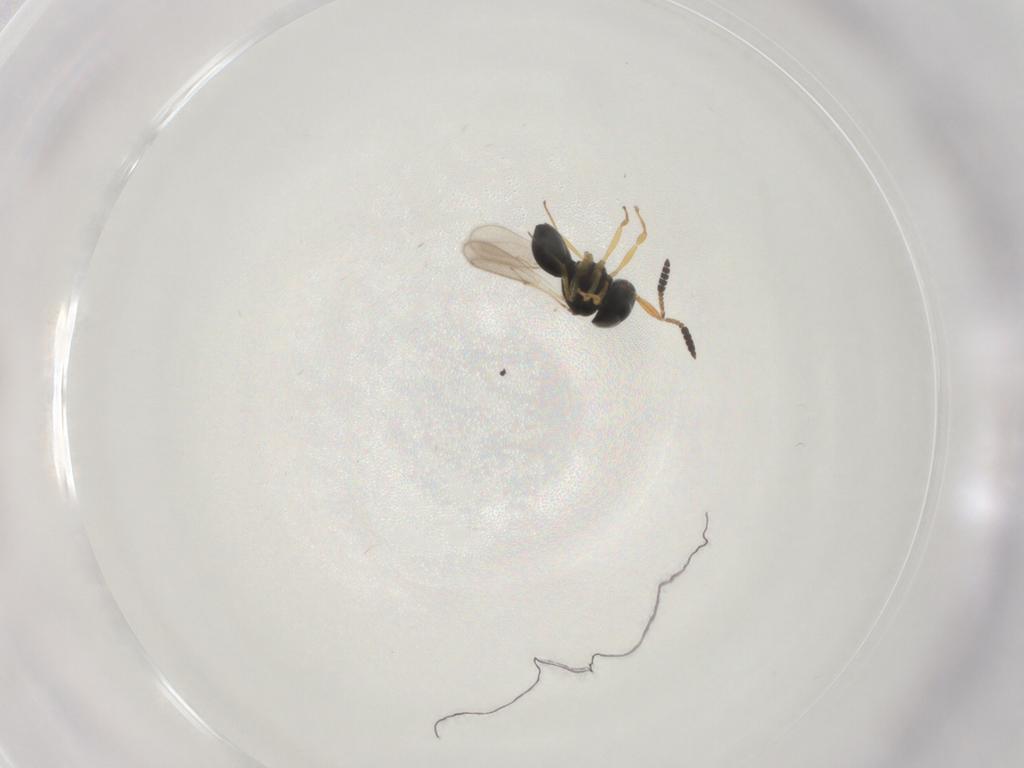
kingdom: Animalia
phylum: Arthropoda
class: Insecta
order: Hymenoptera
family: Scelionidae
